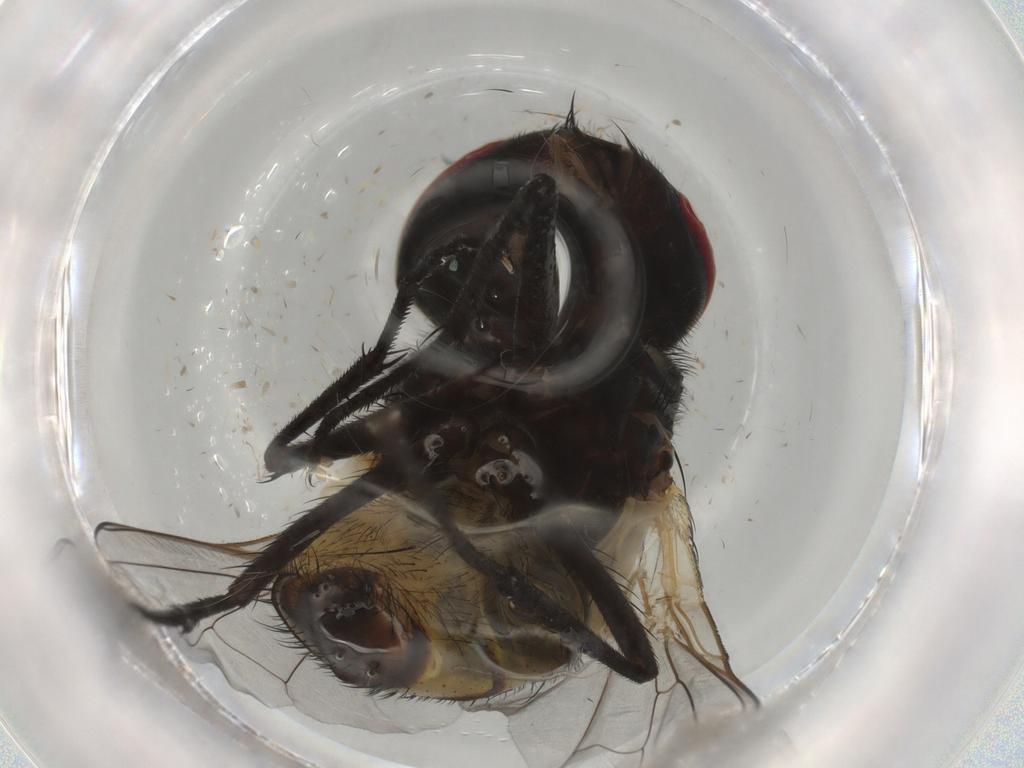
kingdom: Animalia
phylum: Arthropoda
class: Insecta
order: Diptera
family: Cecidomyiidae
